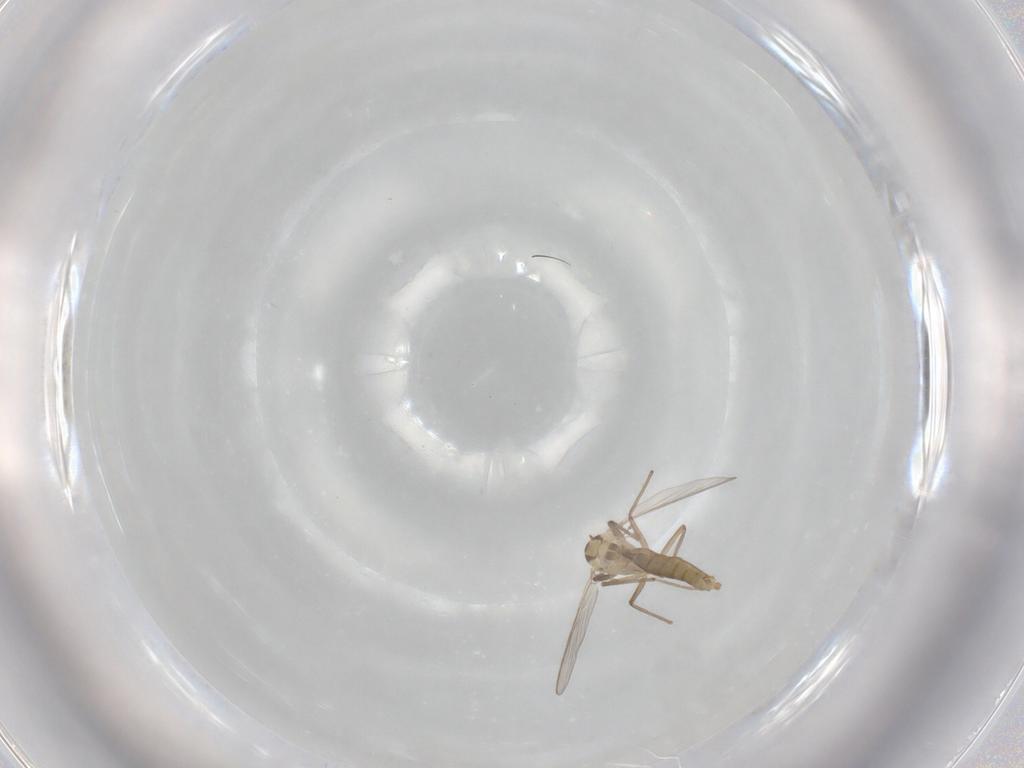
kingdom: Animalia
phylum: Arthropoda
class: Insecta
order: Diptera
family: Chironomidae
